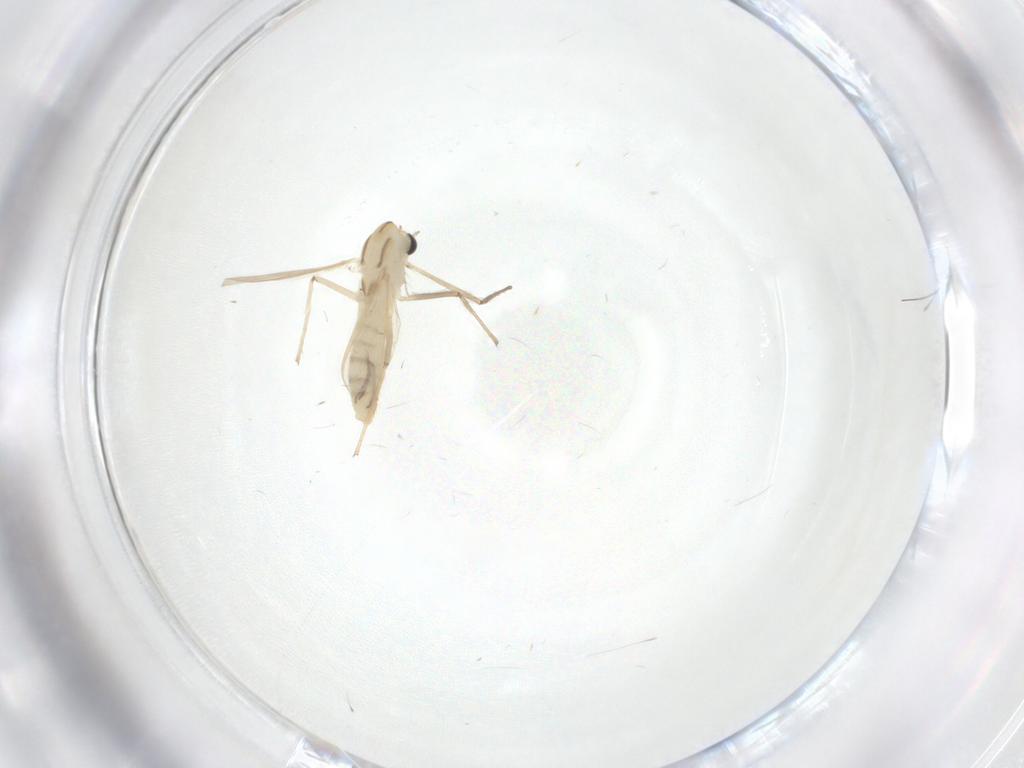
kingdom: Animalia
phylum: Arthropoda
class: Insecta
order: Diptera
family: Chironomidae
